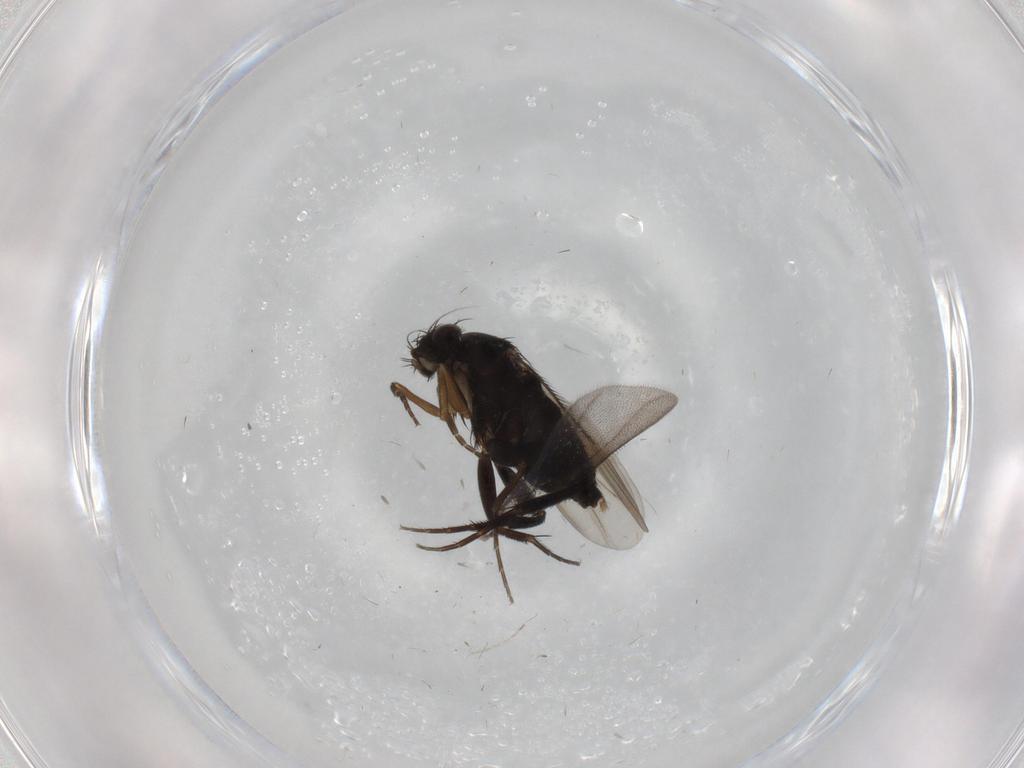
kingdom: Animalia
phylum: Arthropoda
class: Insecta
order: Diptera
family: Phoridae
